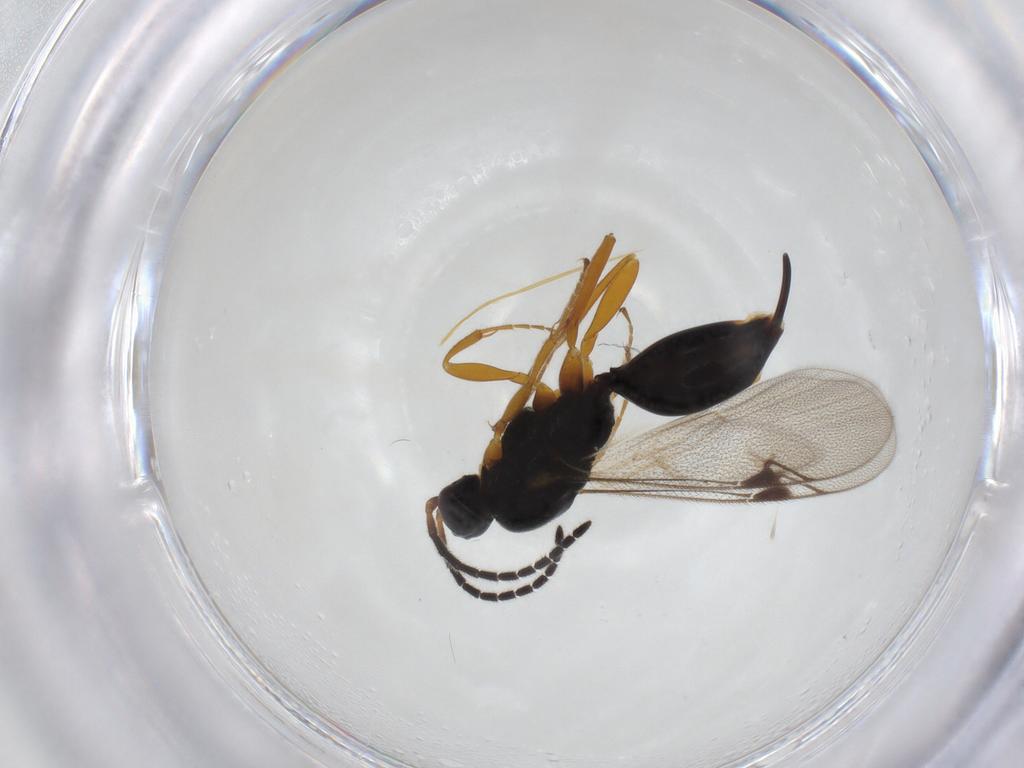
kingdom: Animalia
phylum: Arthropoda
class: Insecta
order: Hymenoptera
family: Proctotrupidae
